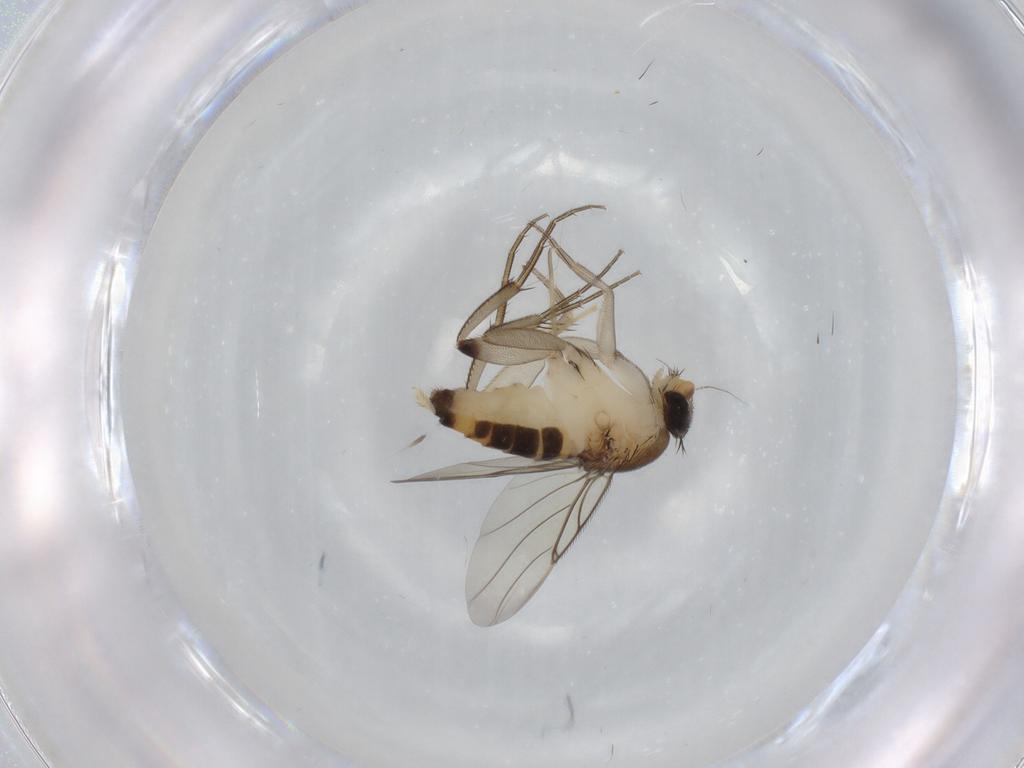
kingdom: Animalia
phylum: Arthropoda
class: Insecta
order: Diptera
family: Phoridae
